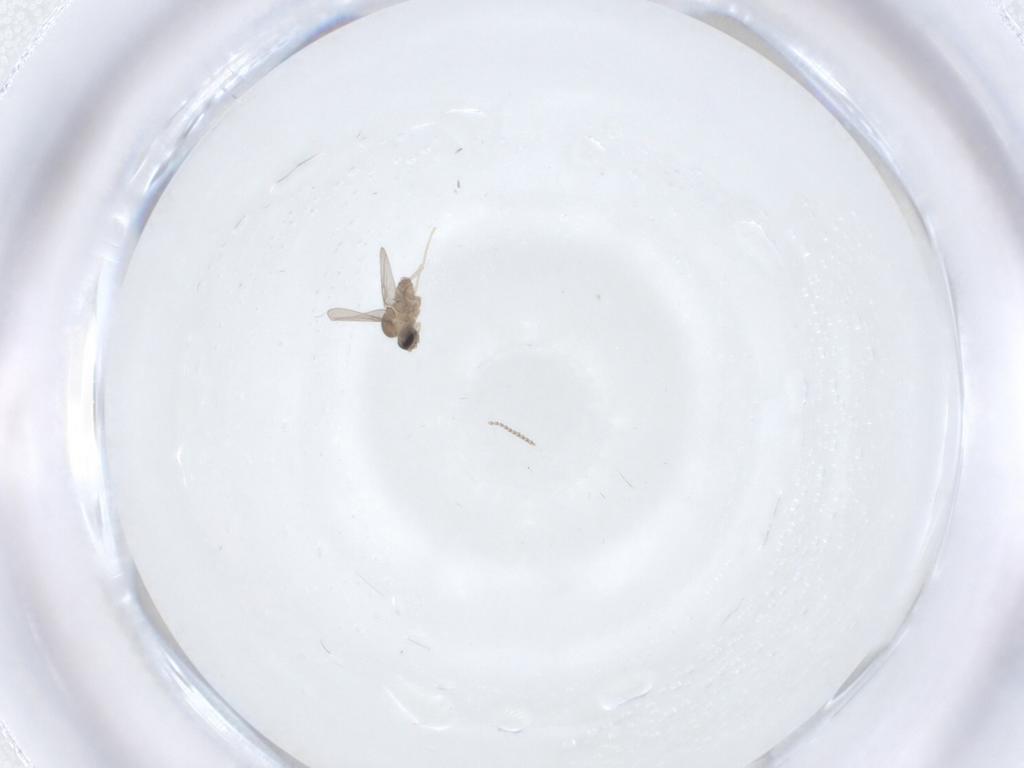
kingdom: Animalia
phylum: Arthropoda
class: Insecta
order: Diptera
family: Cecidomyiidae
